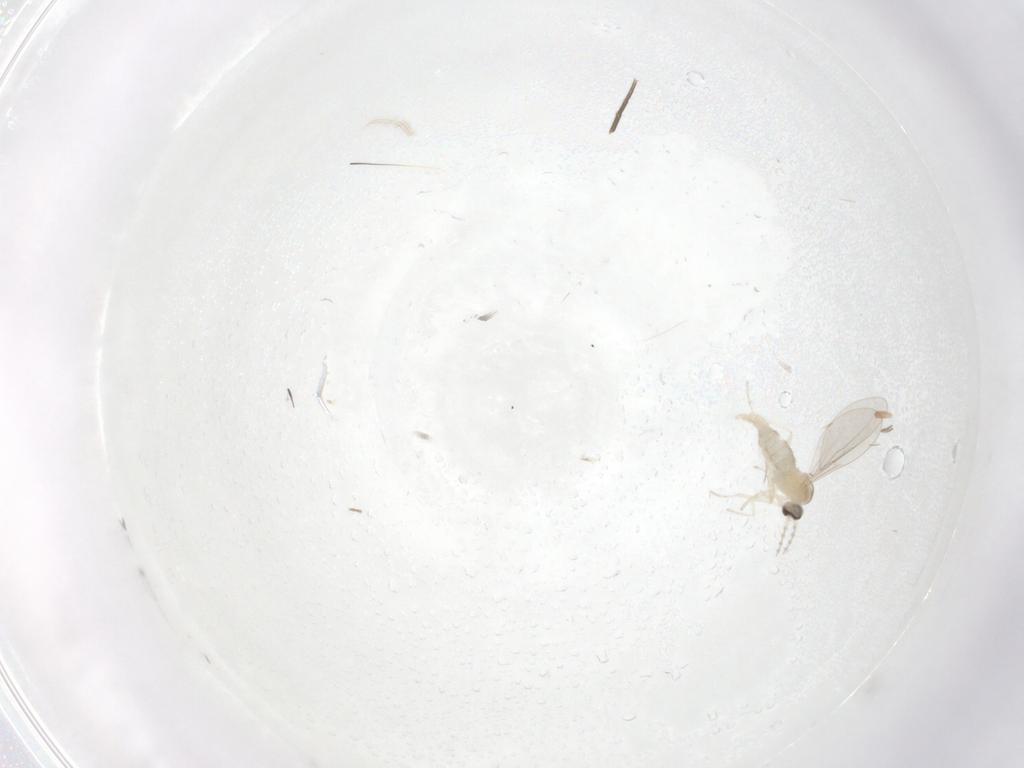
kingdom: Animalia
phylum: Arthropoda
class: Insecta
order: Diptera
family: Cecidomyiidae
